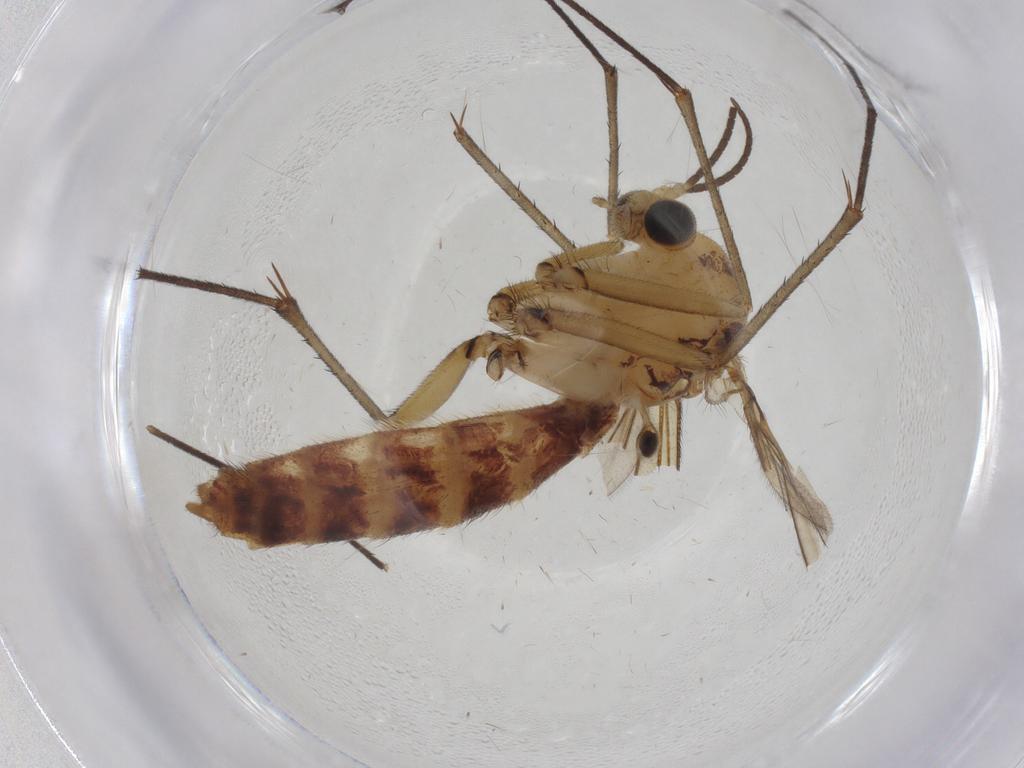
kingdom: Animalia
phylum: Arthropoda
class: Insecta
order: Diptera
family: Mycetophilidae
